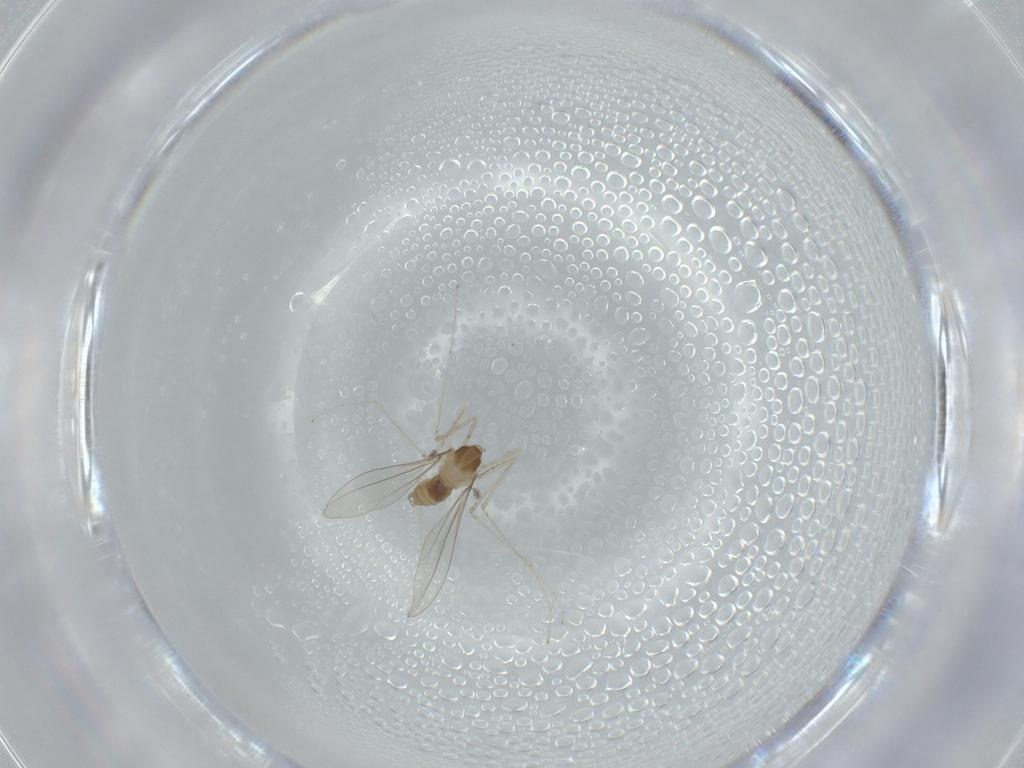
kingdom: Animalia
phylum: Arthropoda
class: Insecta
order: Diptera
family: Cecidomyiidae
